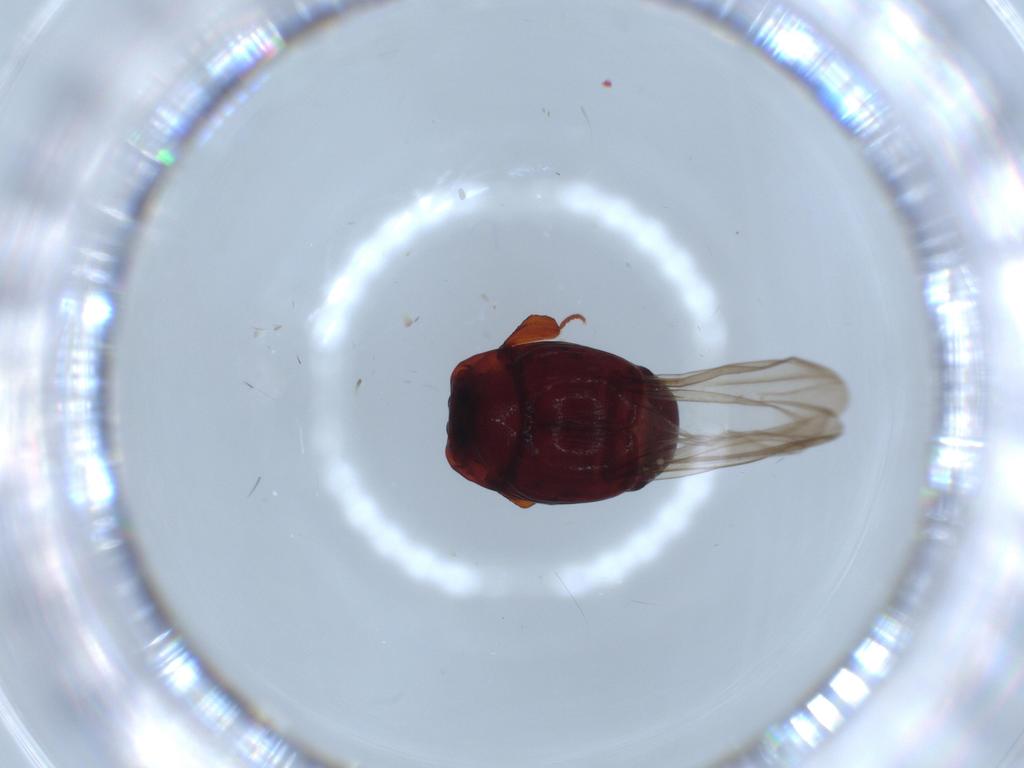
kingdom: Animalia
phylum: Arthropoda
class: Insecta
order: Coleoptera
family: Histeridae
